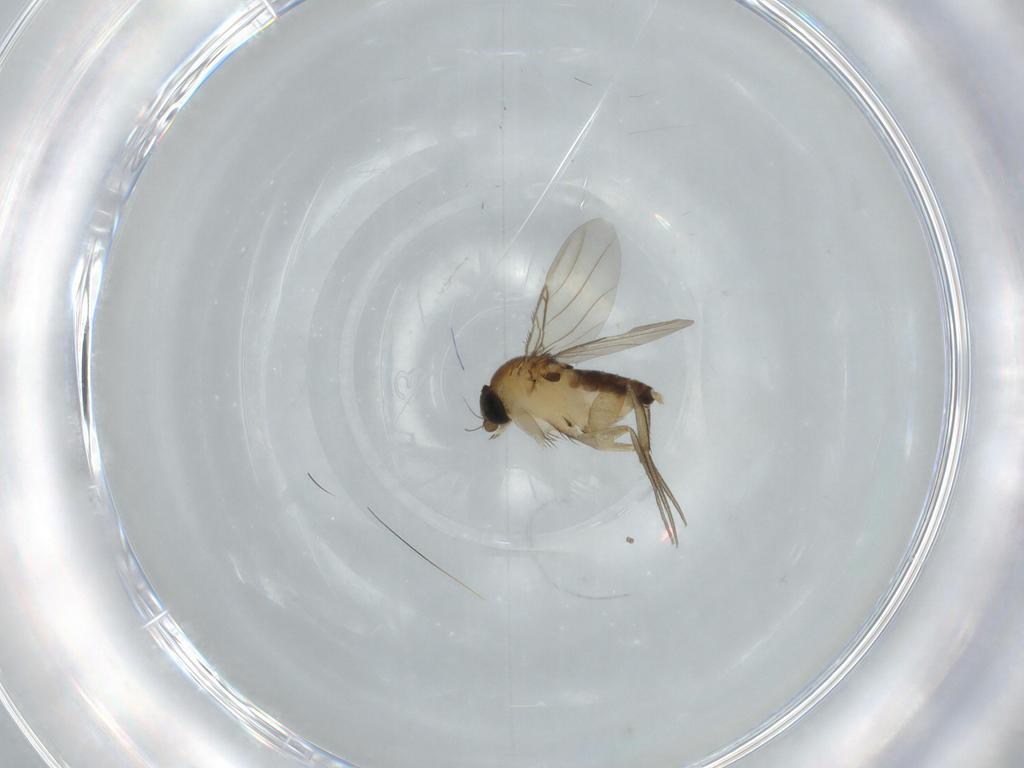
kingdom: Animalia
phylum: Arthropoda
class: Insecta
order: Diptera
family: Phoridae
